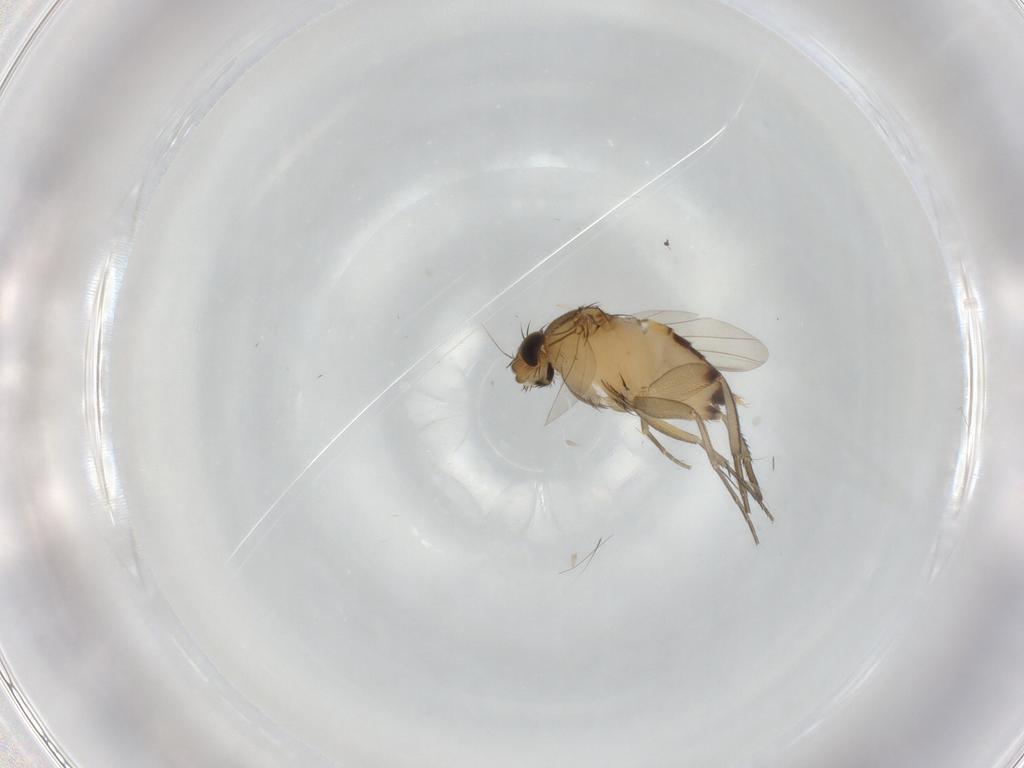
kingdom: Animalia
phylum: Arthropoda
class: Insecta
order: Diptera
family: Phoridae
